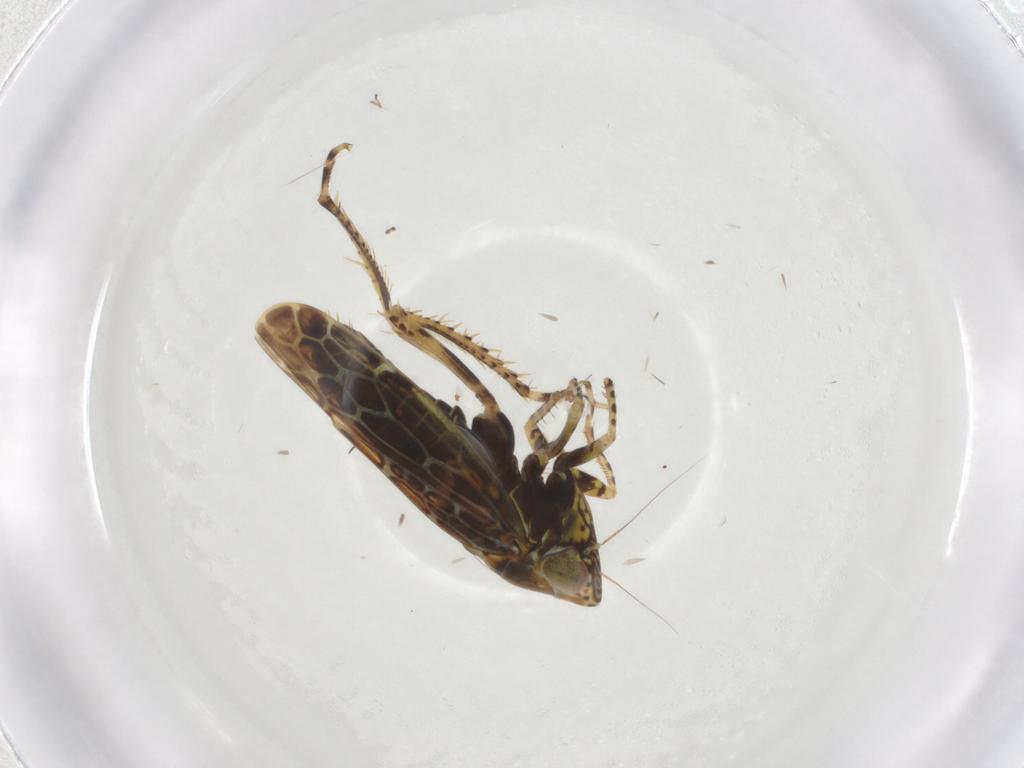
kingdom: Animalia
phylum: Arthropoda
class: Insecta
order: Hemiptera
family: Cicadellidae
